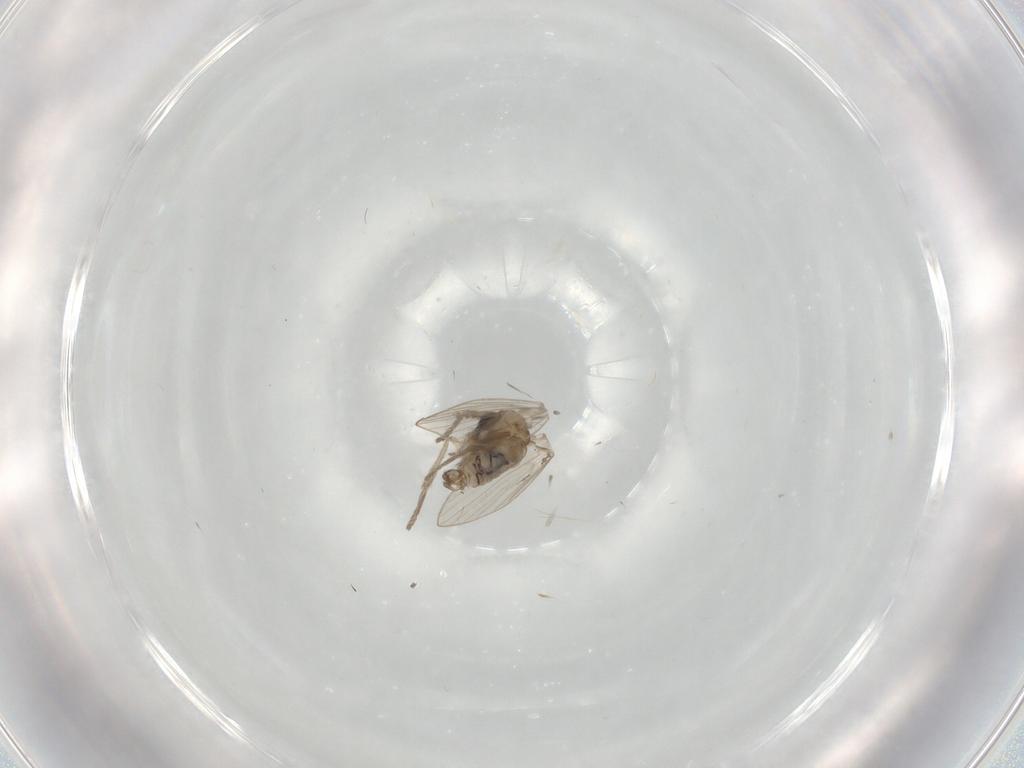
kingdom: Animalia
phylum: Arthropoda
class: Insecta
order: Diptera
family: Psychodidae
